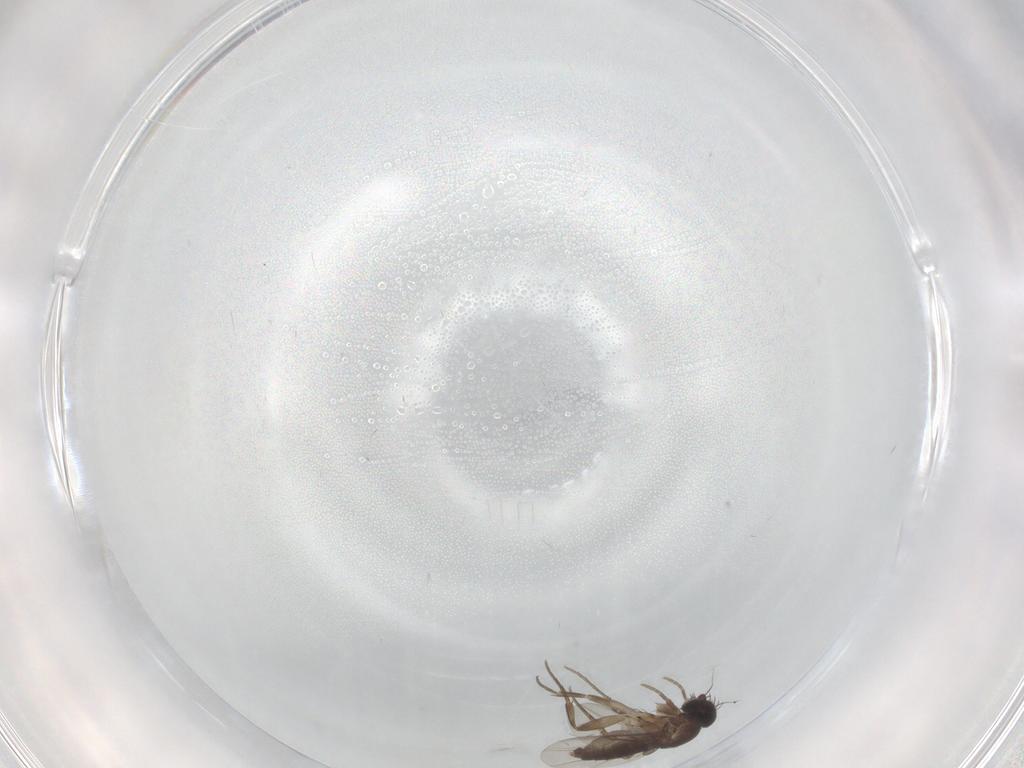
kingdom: Animalia
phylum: Arthropoda
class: Insecta
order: Diptera
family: Phoridae
